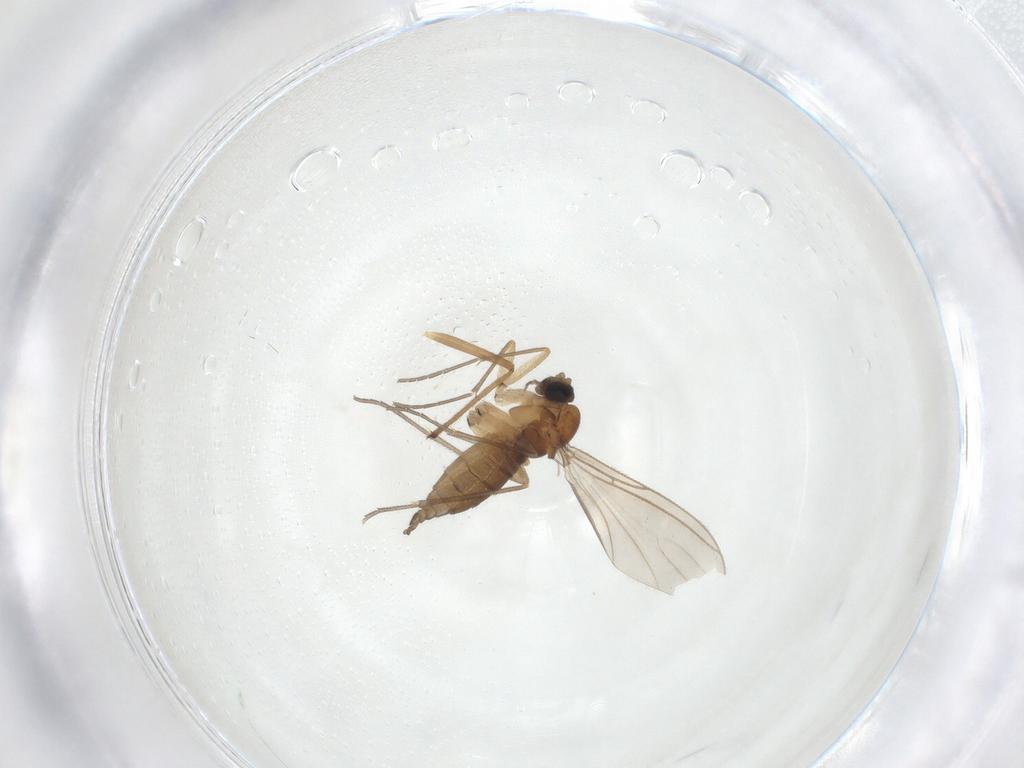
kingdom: Animalia
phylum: Arthropoda
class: Insecta
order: Diptera
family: Sciaridae
